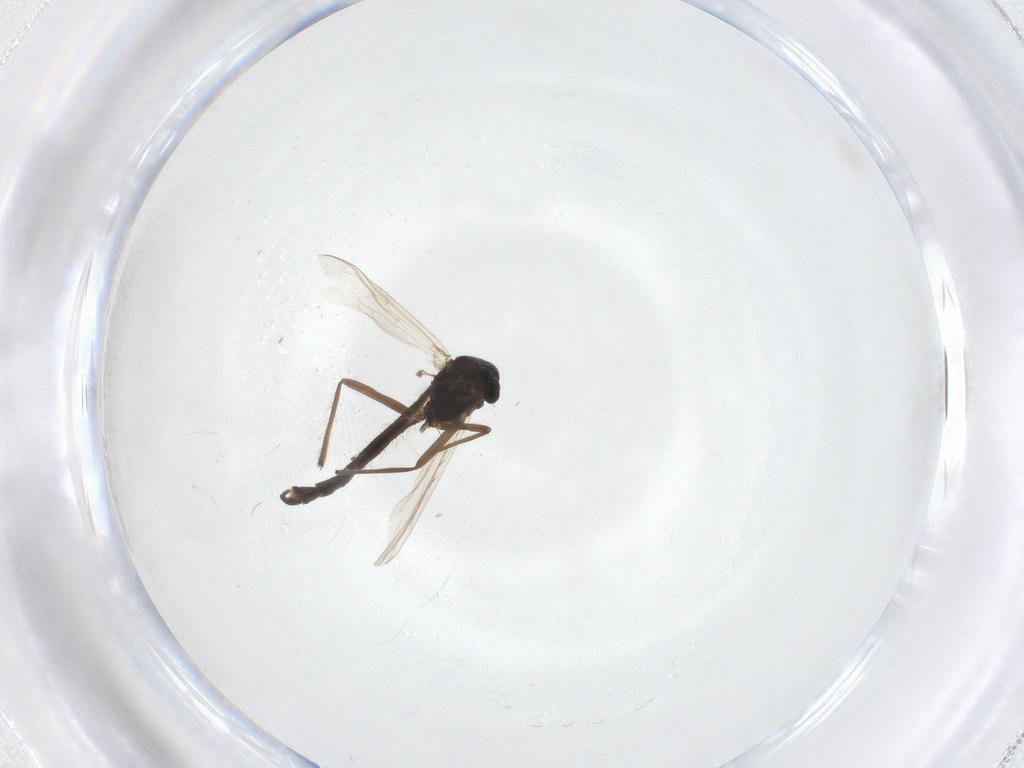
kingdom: Animalia
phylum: Arthropoda
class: Insecta
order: Diptera
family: Chironomidae
